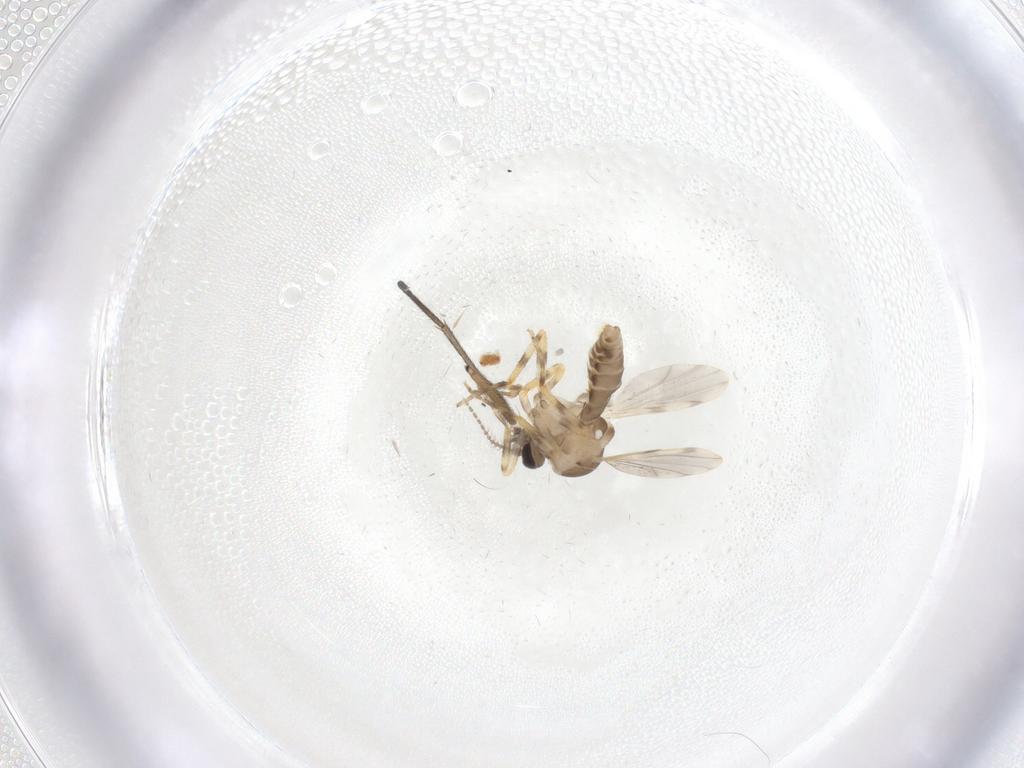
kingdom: Animalia
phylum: Arthropoda
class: Insecta
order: Diptera
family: Ceratopogonidae
